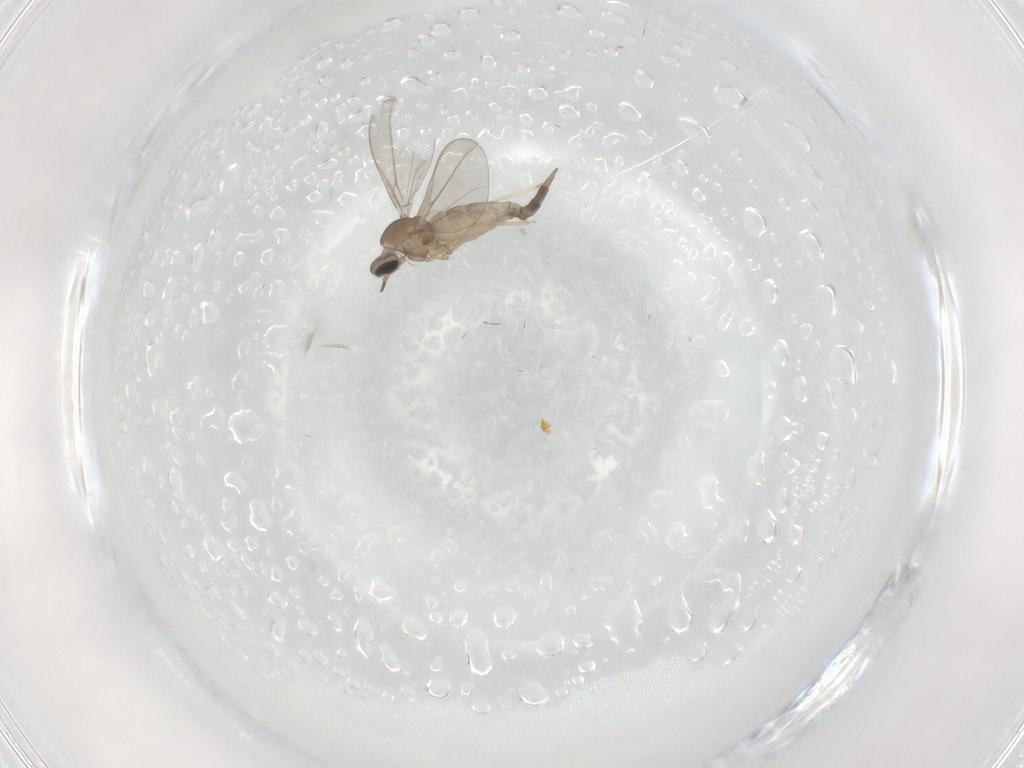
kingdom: Animalia
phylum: Arthropoda
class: Insecta
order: Diptera
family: Cecidomyiidae
